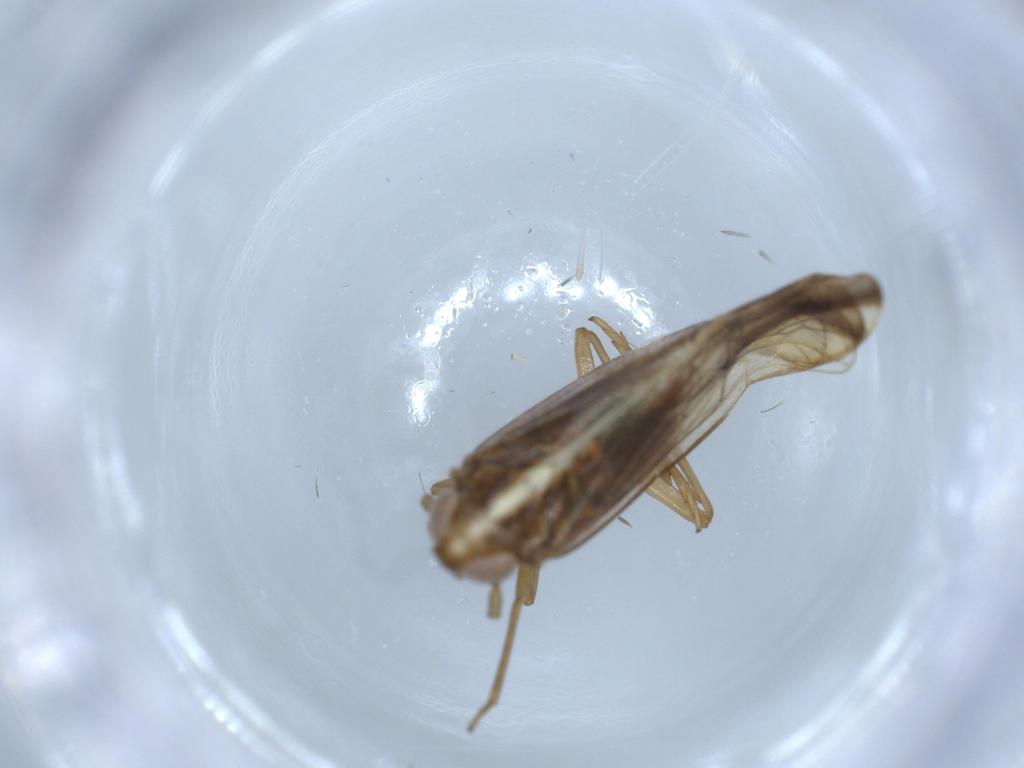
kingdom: Animalia
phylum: Arthropoda
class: Insecta
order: Hemiptera
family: Delphacidae
